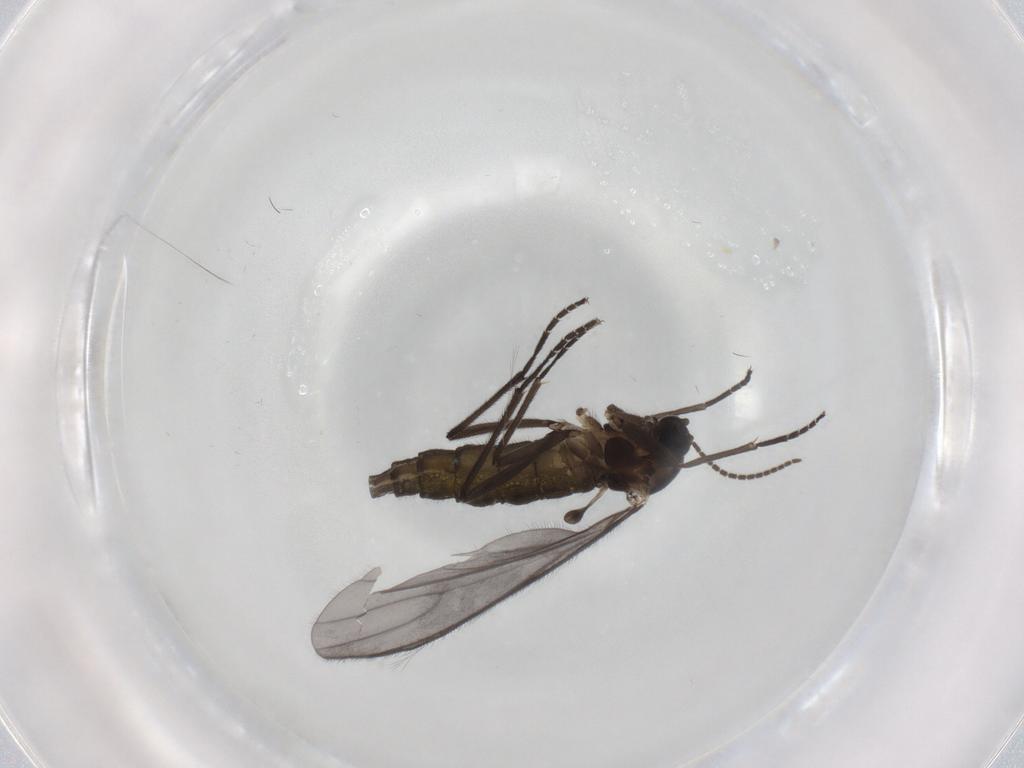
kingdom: Animalia
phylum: Arthropoda
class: Insecta
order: Diptera
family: Sciaridae
